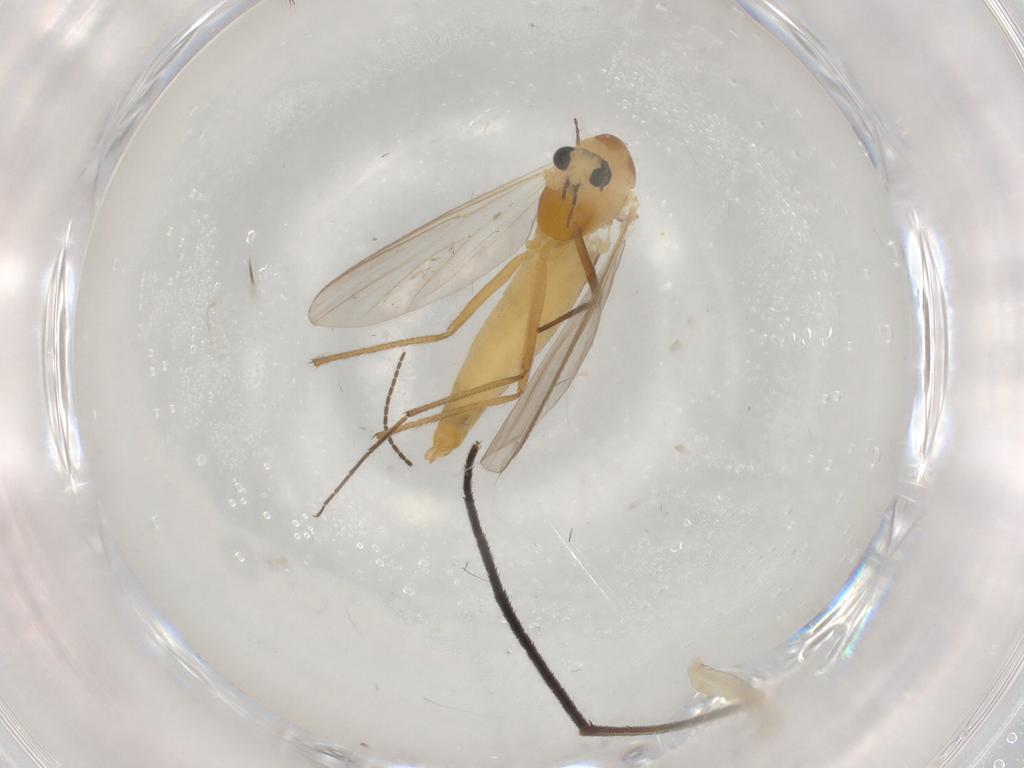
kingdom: Animalia
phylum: Arthropoda
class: Insecta
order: Diptera
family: Chironomidae
